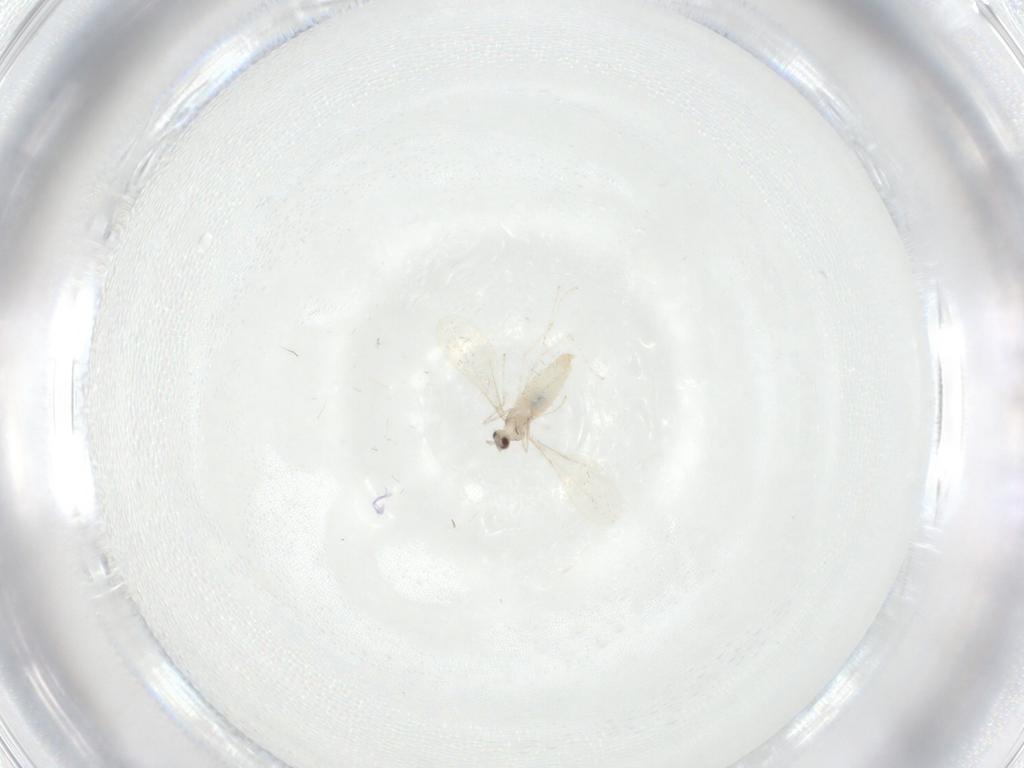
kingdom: Animalia
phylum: Arthropoda
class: Insecta
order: Diptera
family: Cecidomyiidae
